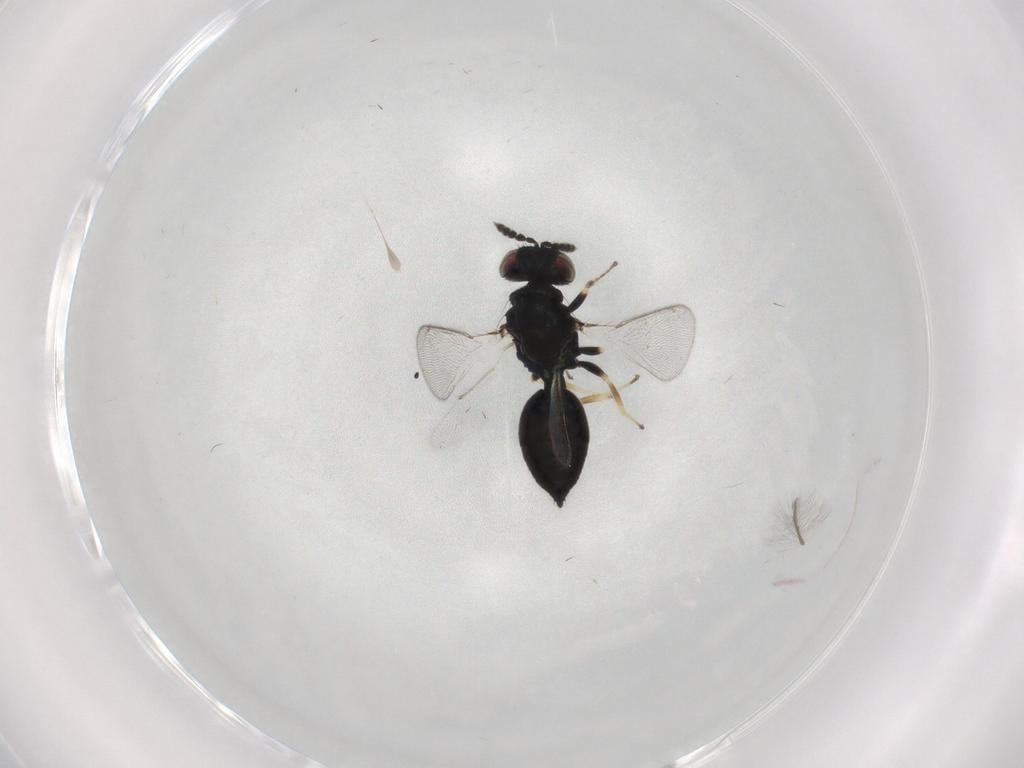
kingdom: Animalia
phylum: Arthropoda
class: Insecta
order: Hymenoptera
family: Eulophidae
